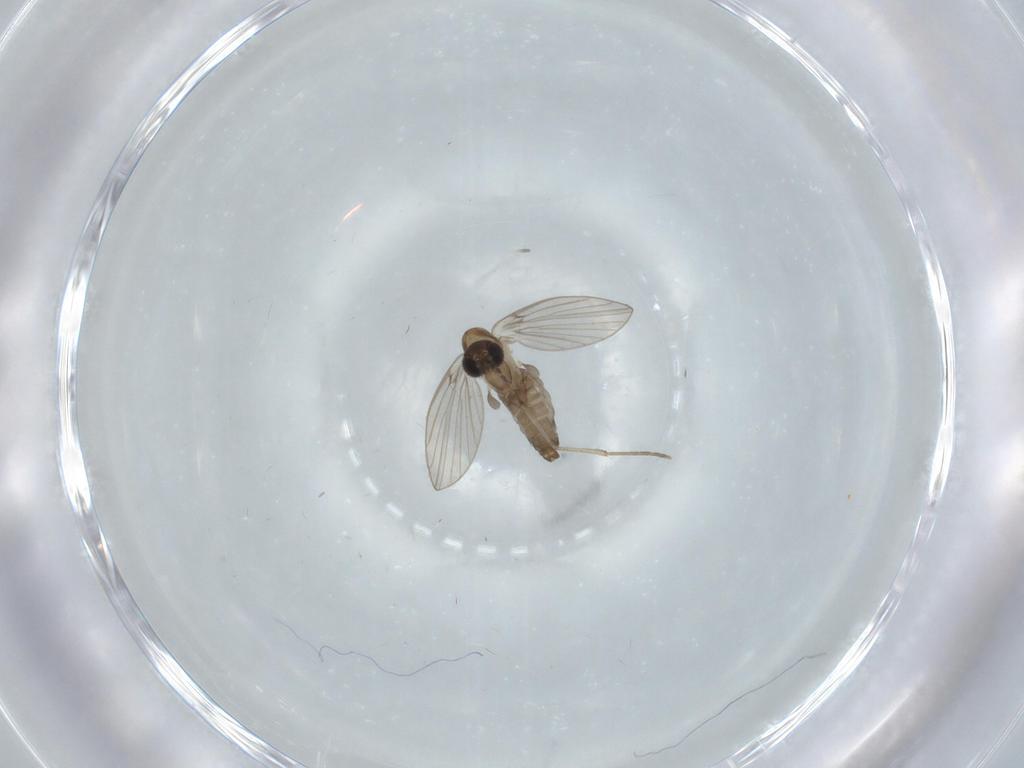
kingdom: Animalia
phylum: Arthropoda
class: Insecta
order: Diptera
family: Psychodidae
